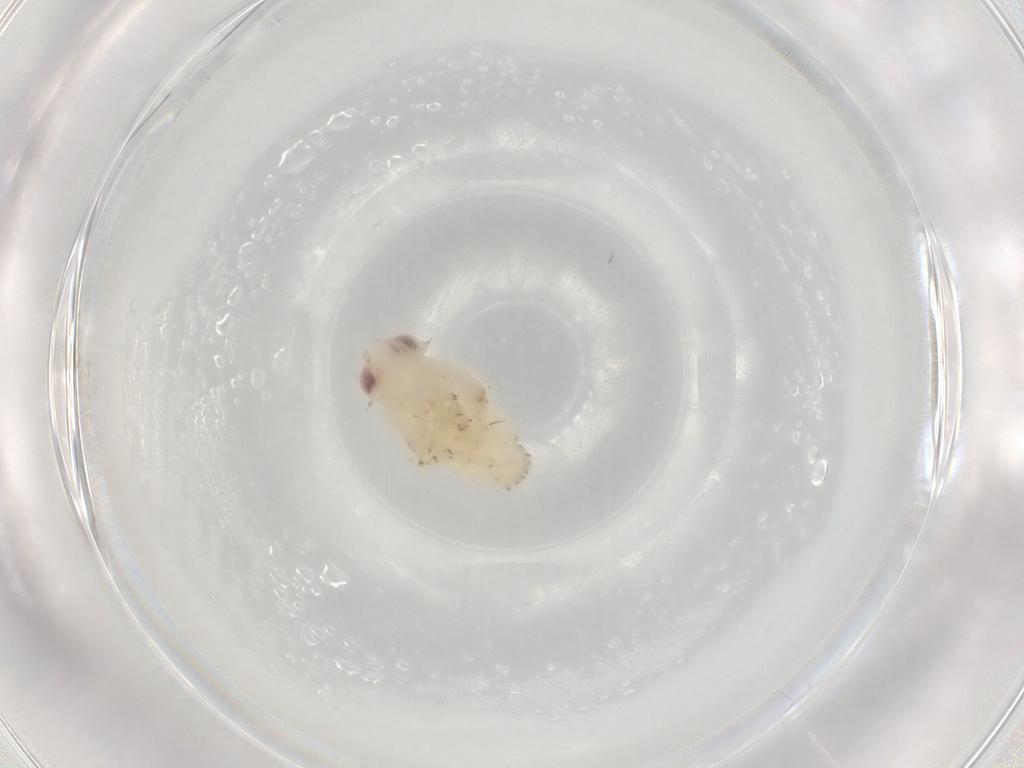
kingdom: Animalia
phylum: Arthropoda
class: Insecta
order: Hemiptera
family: Nogodinidae
